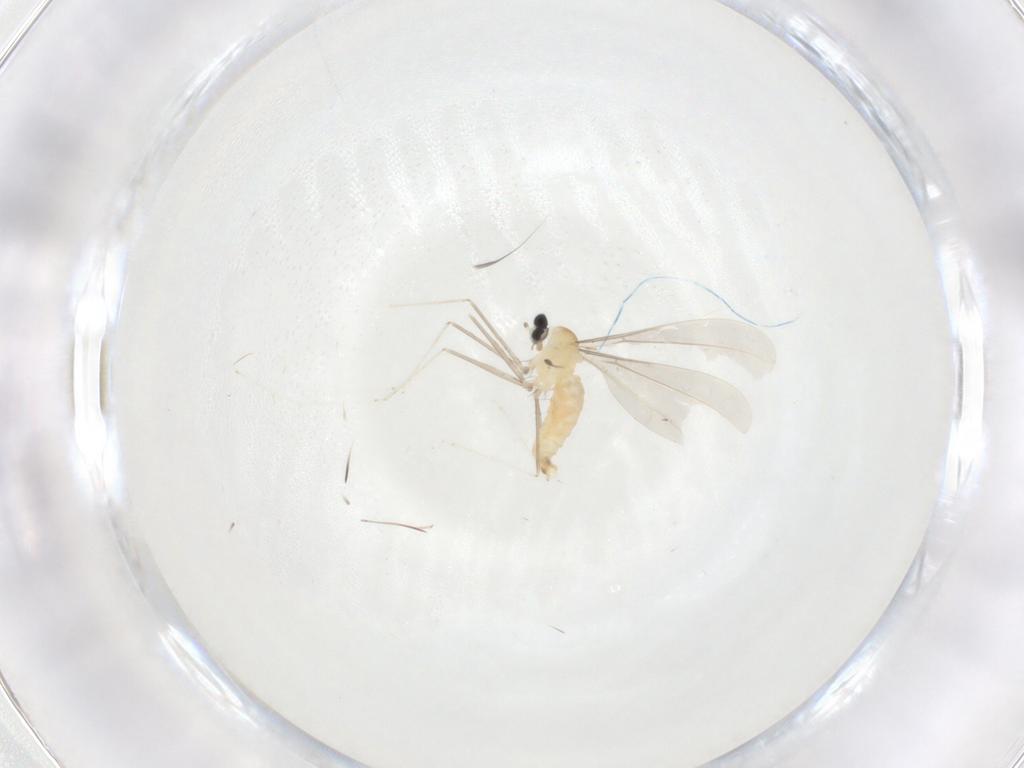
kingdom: Animalia
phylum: Arthropoda
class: Insecta
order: Diptera
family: Cecidomyiidae
